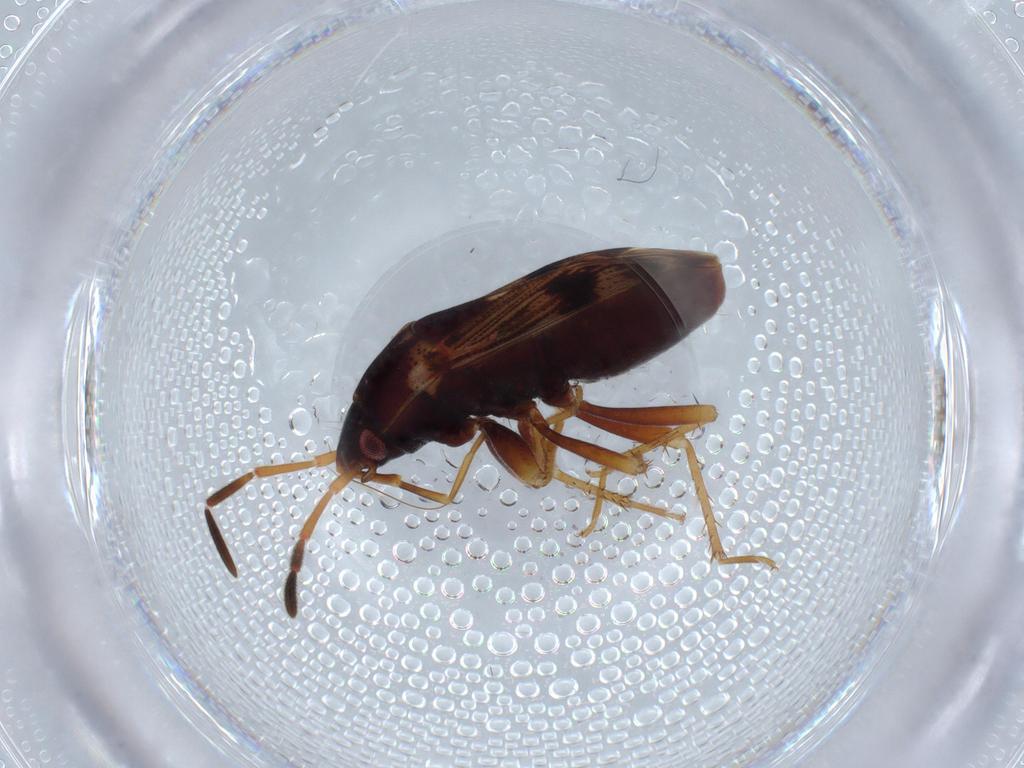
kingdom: Animalia
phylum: Arthropoda
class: Insecta
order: Hemiptera
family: Rhyparochromidae
